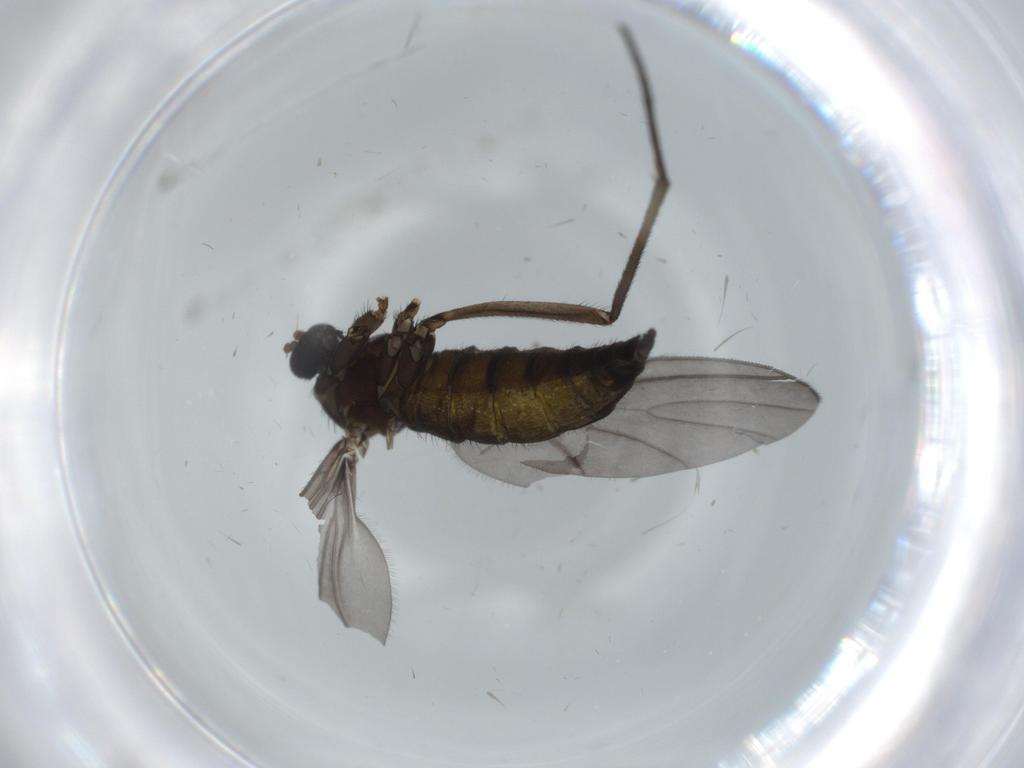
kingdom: Animalia
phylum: Arthropoda
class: Insecta
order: Diptera
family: Sciaridae
